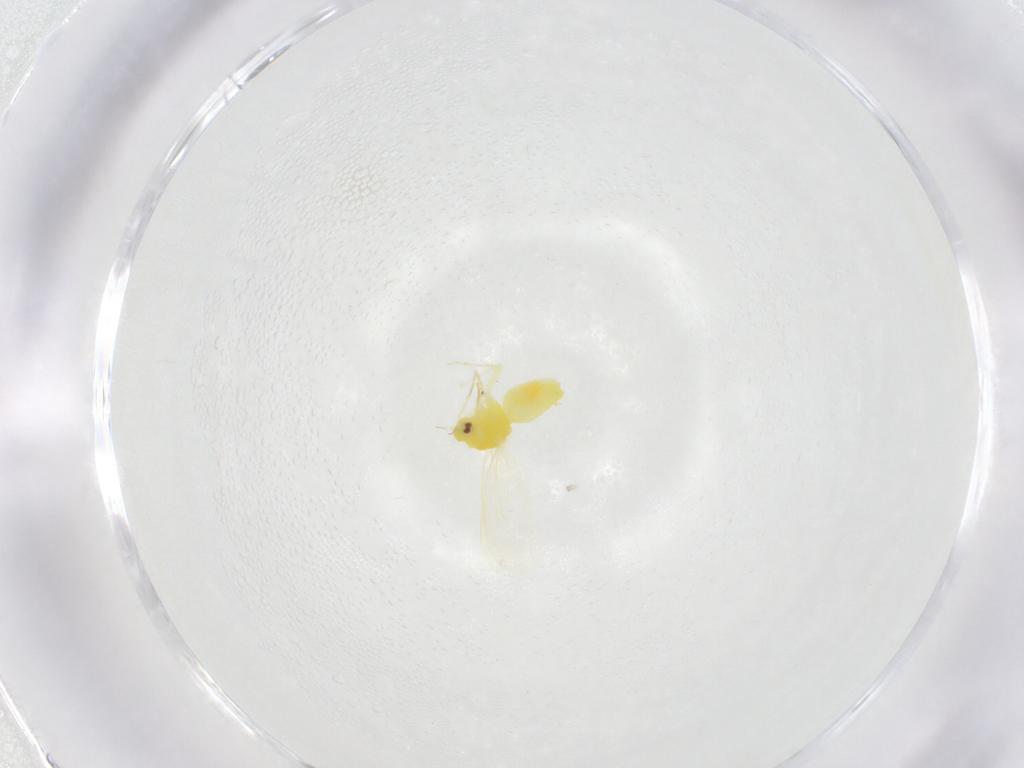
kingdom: Animalia
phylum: Arthropoda
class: Insecta
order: Hemiptera
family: Aleyrodidae
